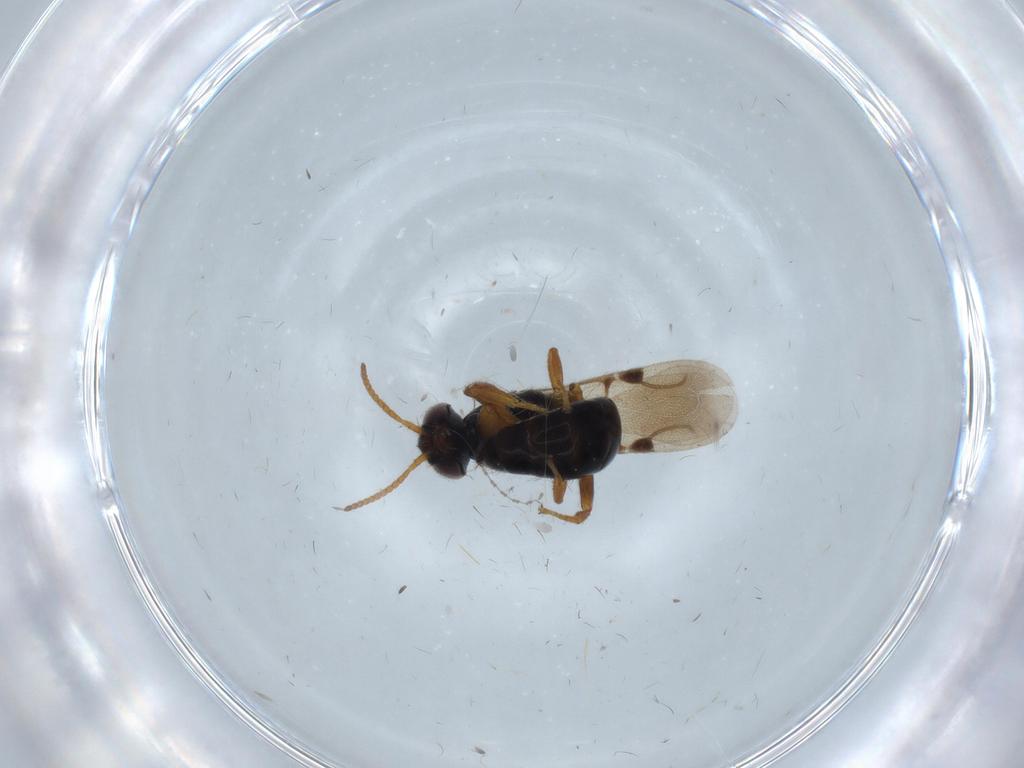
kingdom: Animalia
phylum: Arthropoda
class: Insecta
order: Hymenoptera
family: Bethylidae
